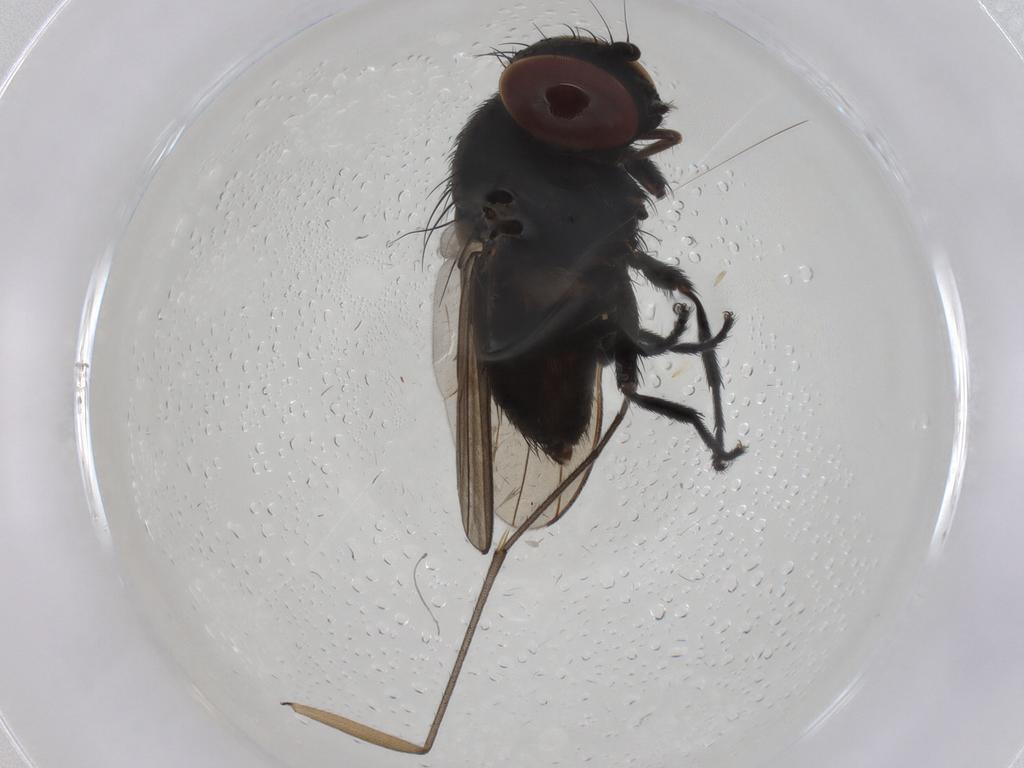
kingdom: Animalia
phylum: Arthropoda
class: Insecta
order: Diptera
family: Ceratopogonidae
